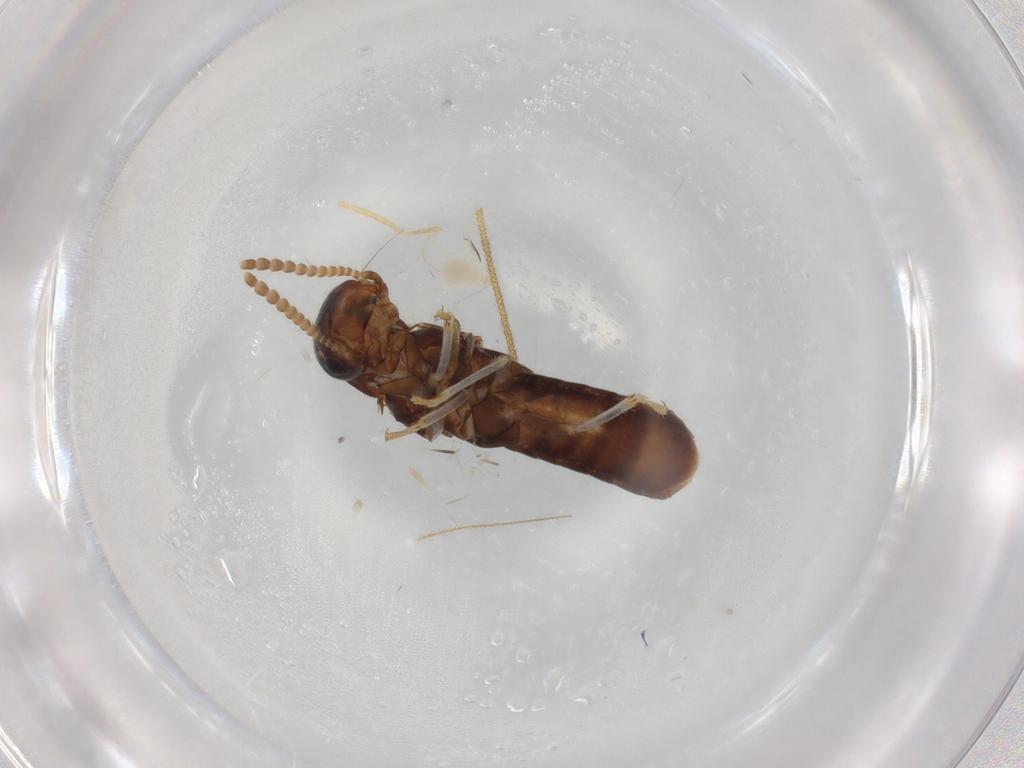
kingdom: Animalia
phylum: Arthropoda
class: Insecta
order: Blattodea
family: Kalotermitidae
